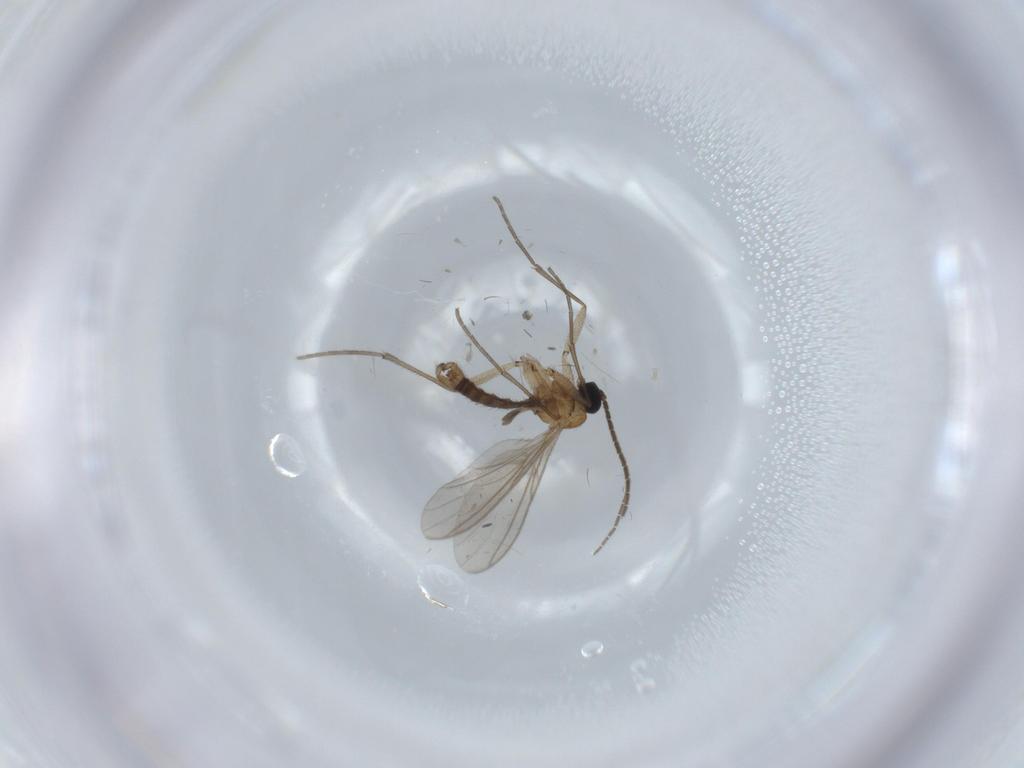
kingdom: Animalia
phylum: Arthropoda
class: Insecta
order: Diptera
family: Sciaridae
